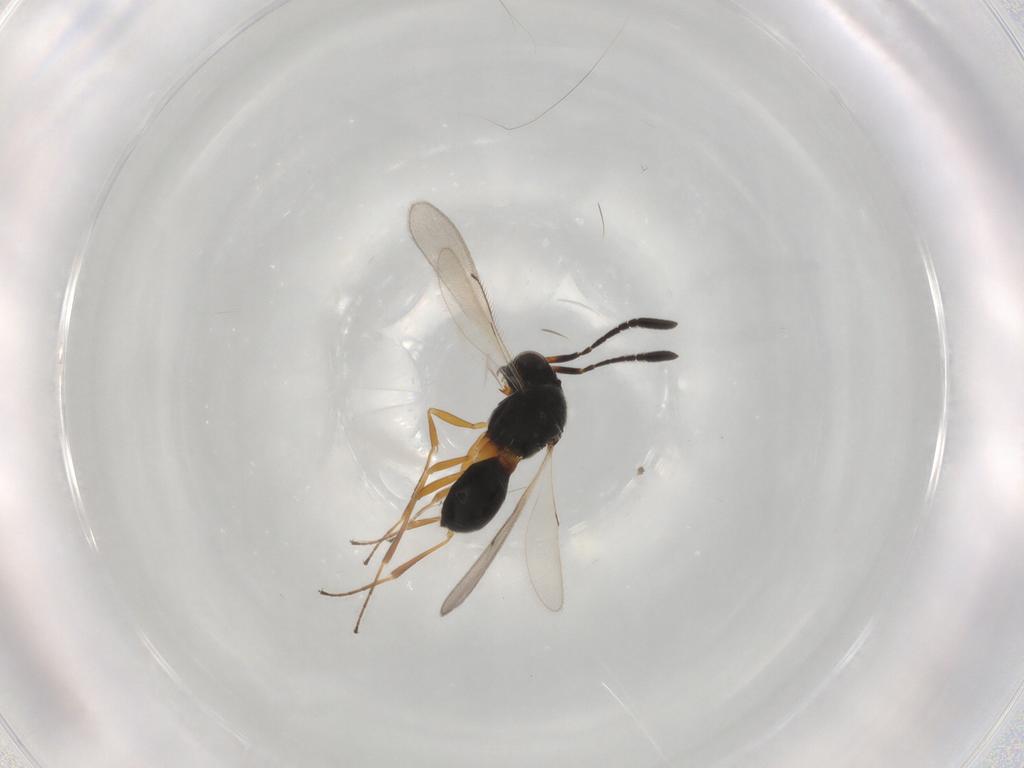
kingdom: Animalia
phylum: Arthropoda
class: Insecta
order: Hymenoptera
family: Scelionidae
